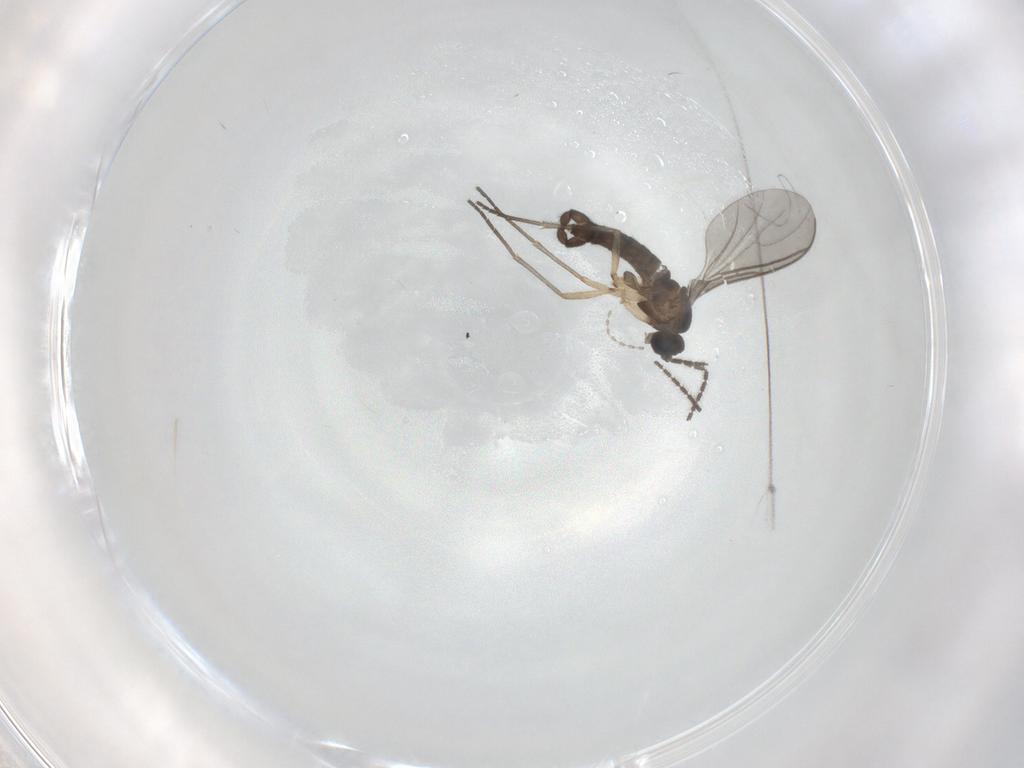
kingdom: Animalia
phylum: Arthropoda
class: Insecta
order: Diptera
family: Sciaridae
